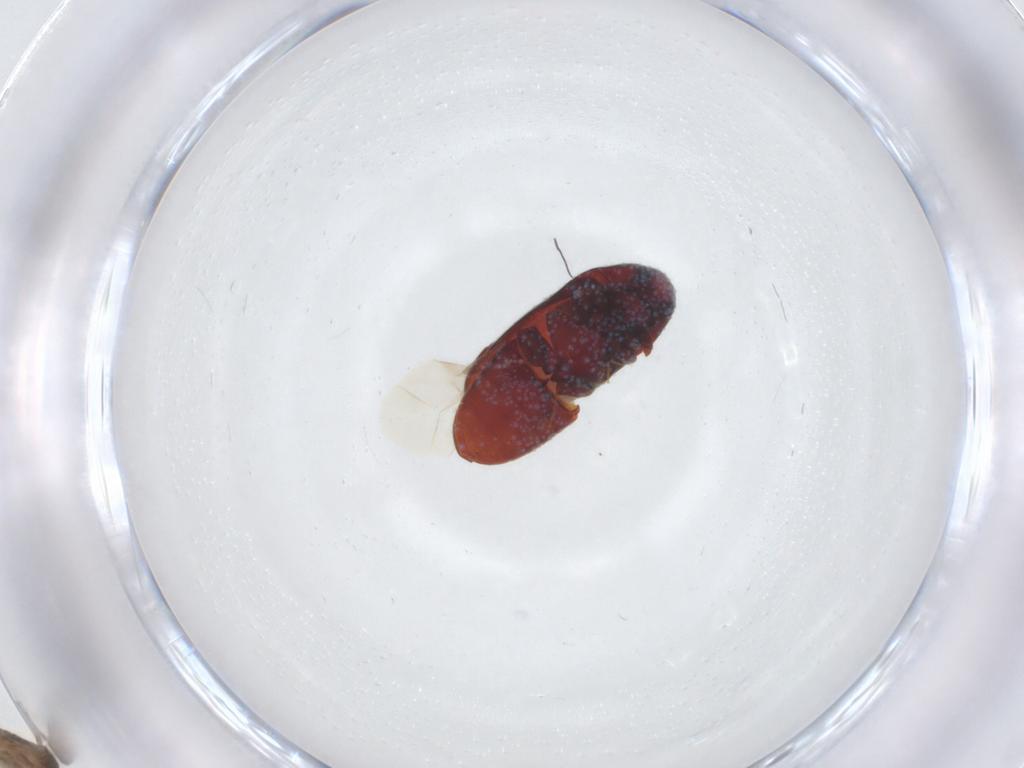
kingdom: Animalia
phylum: Arthropoda
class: Insecta
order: Coleoptera
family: Throscidae
